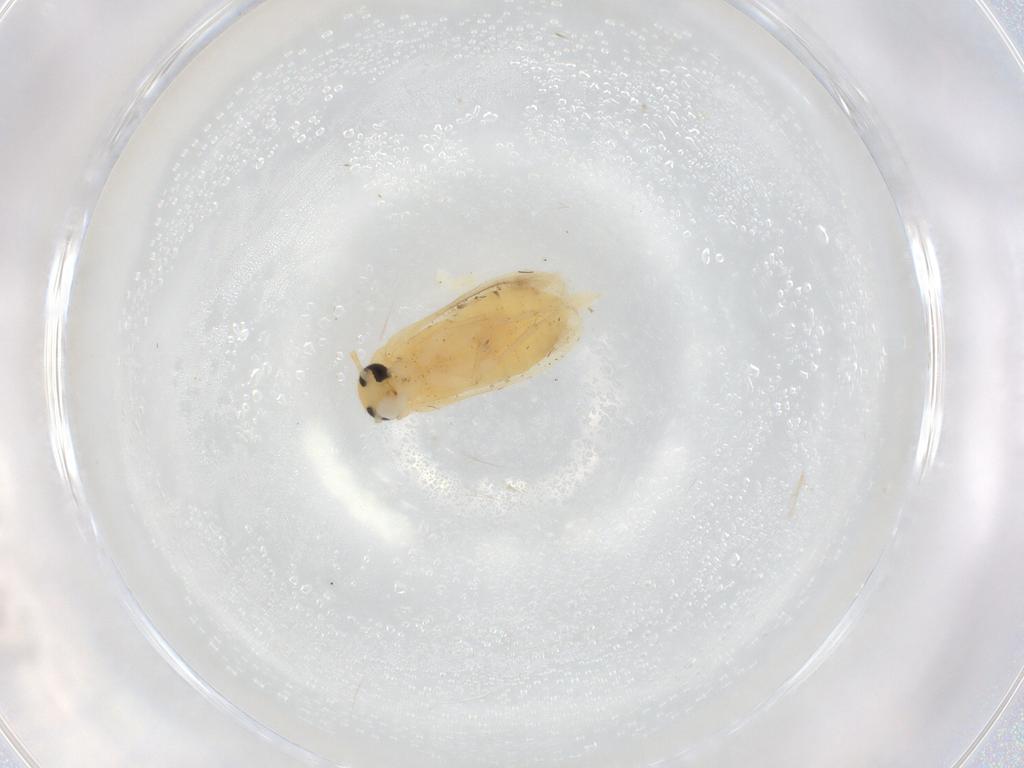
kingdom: Animalia
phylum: Arthropoda
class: Insecta
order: Coleoptera
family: Scraptiidae
